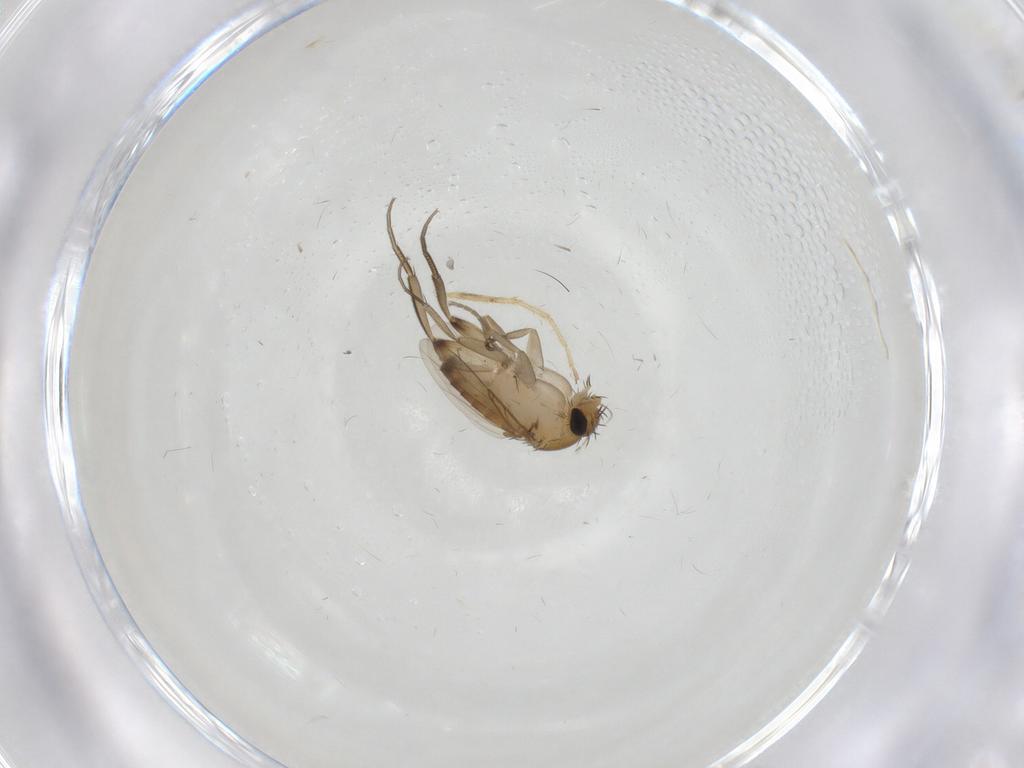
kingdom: Animalia
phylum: Arthropoda
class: Insecta
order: Diptera
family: Phoridae
